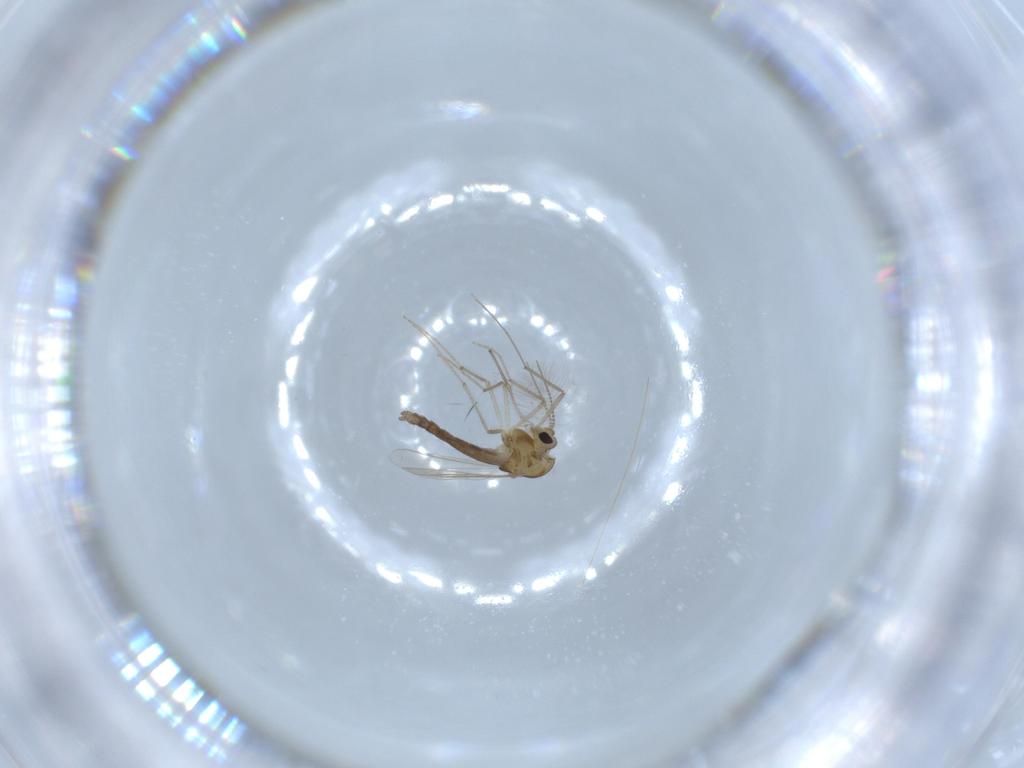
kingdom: Animalia
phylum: Arthropoda
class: Insecta
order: Diptera
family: Chironomidae
